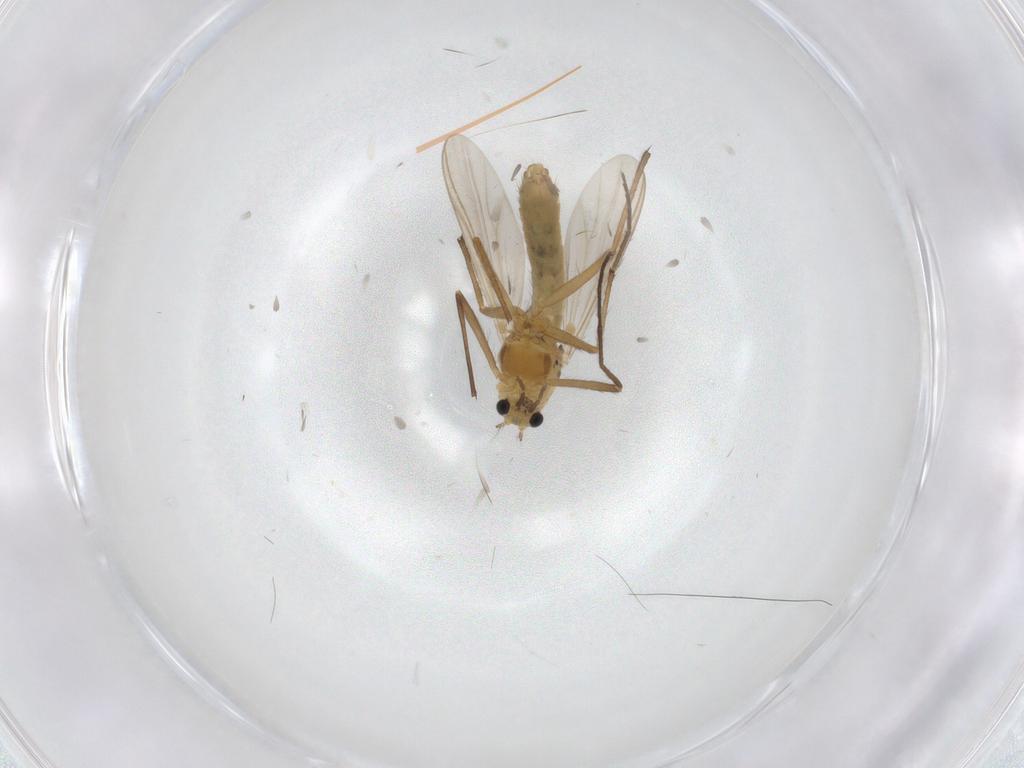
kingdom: Animalia
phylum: Arthropoda
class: Insecta
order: Diptera
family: Chironomidae
